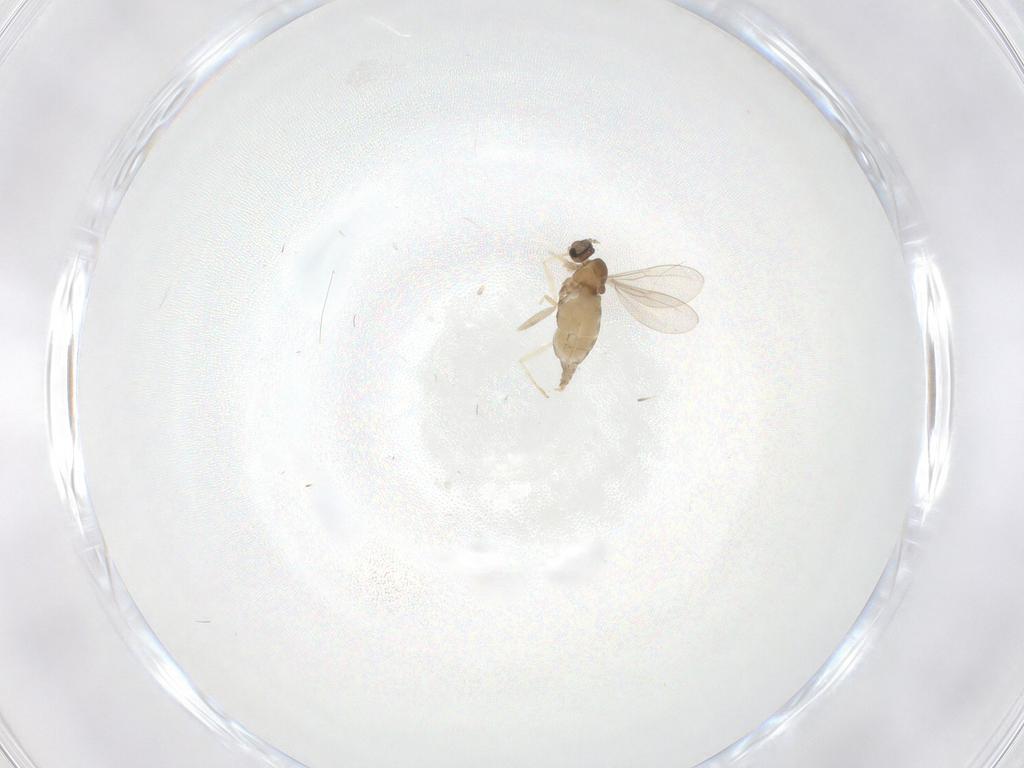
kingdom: Animalia
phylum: Arthropoda
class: Insecta
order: Diptera
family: Cecidomyiidae
